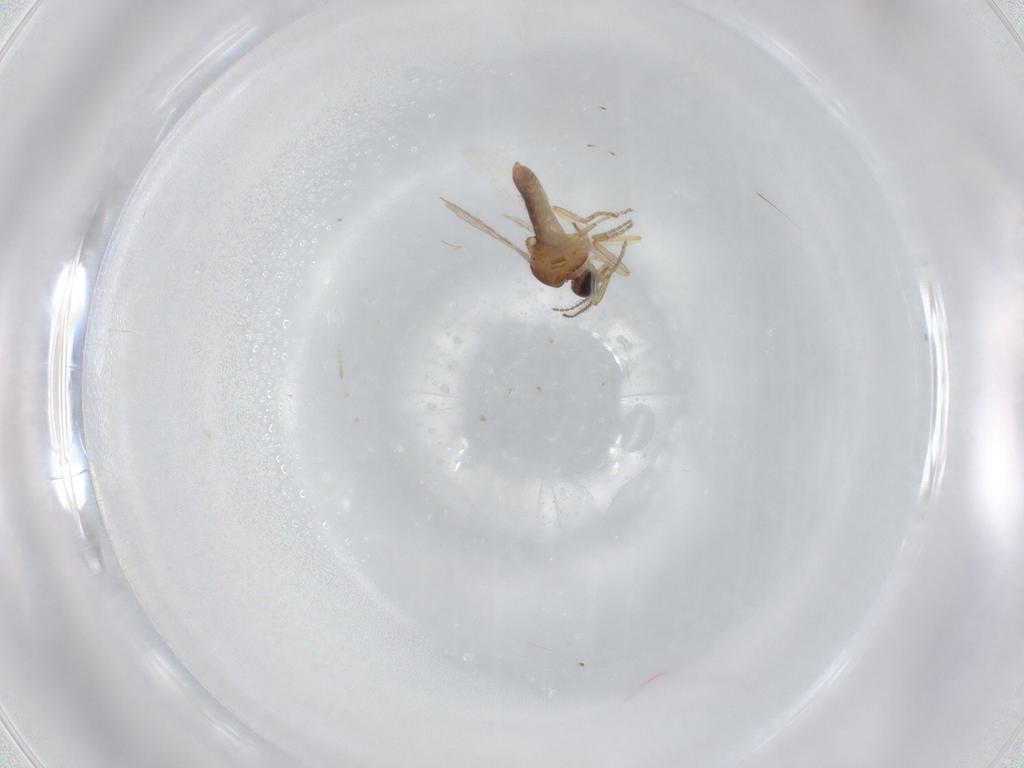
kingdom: Animalia
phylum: Arthropoda
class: Insecta
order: Diptera
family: Ceratopogonidae
